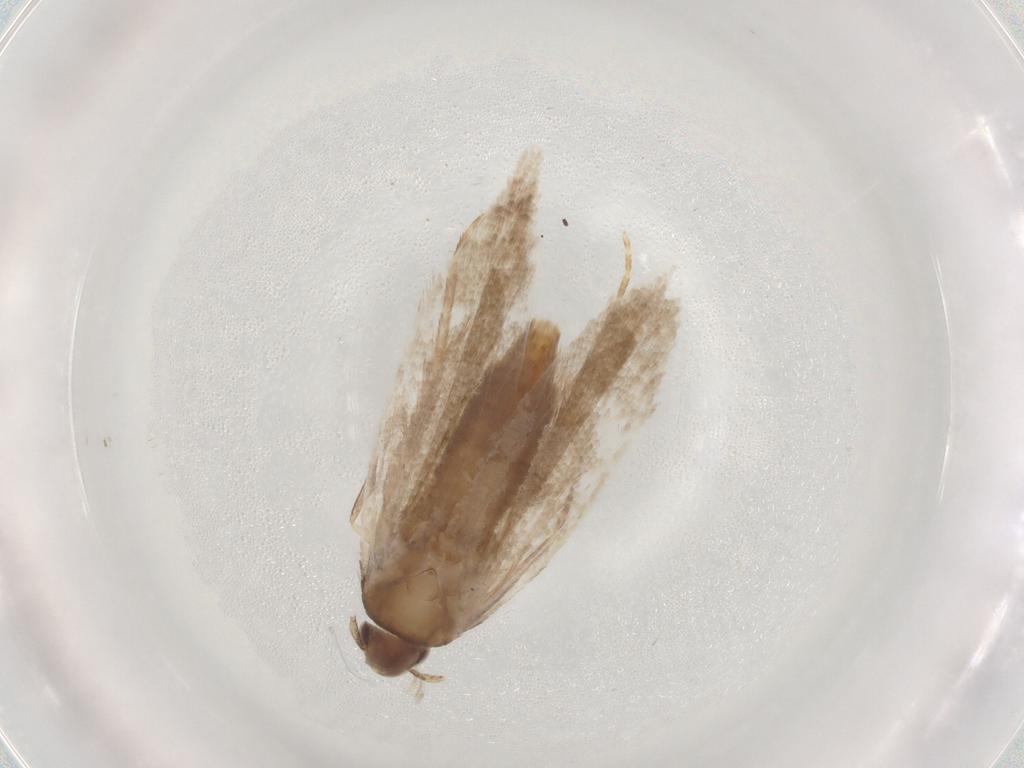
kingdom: Animalia
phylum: Arthropoda
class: Insecta
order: Lepidoptera
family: Gelechiidae
